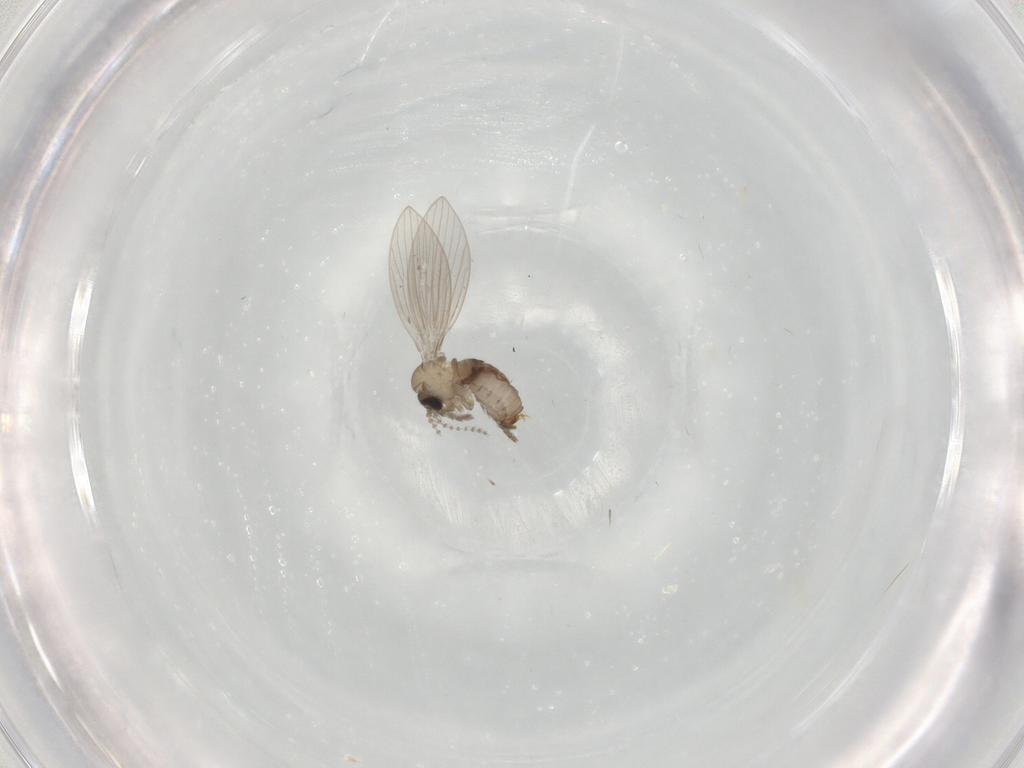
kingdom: Animalia
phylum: Arthropoda
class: Insecta
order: Diptera
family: Psychodidae
